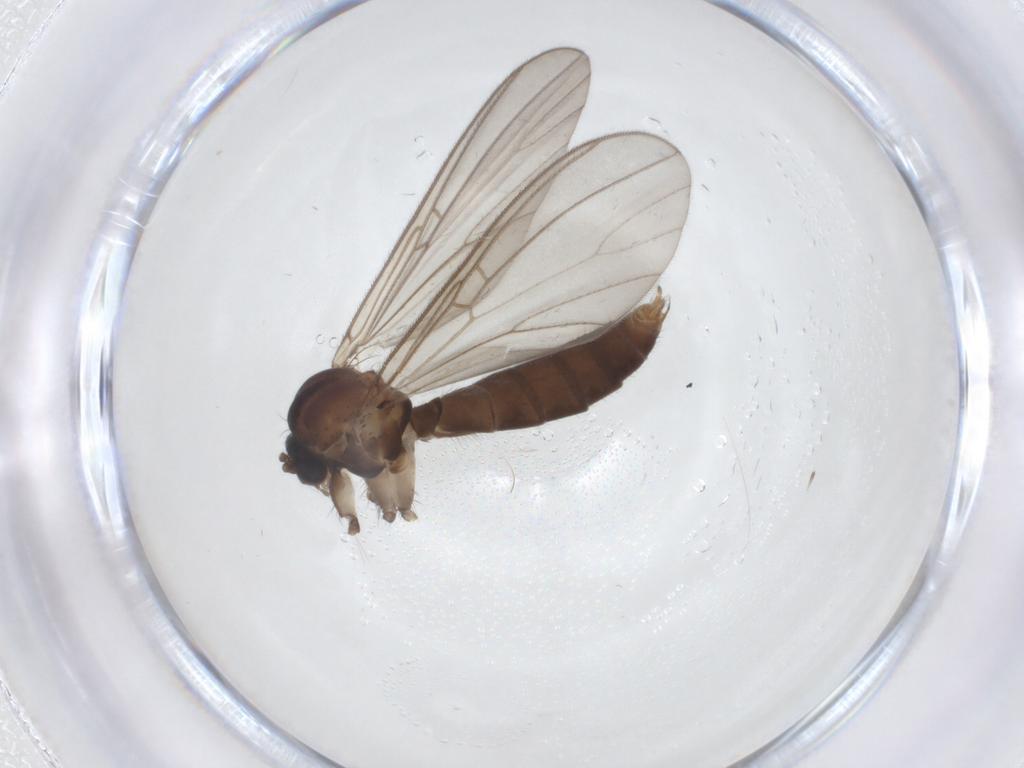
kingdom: Animalia
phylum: Arthropoda
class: Insecta
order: Diptera
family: Mycetophilidae
